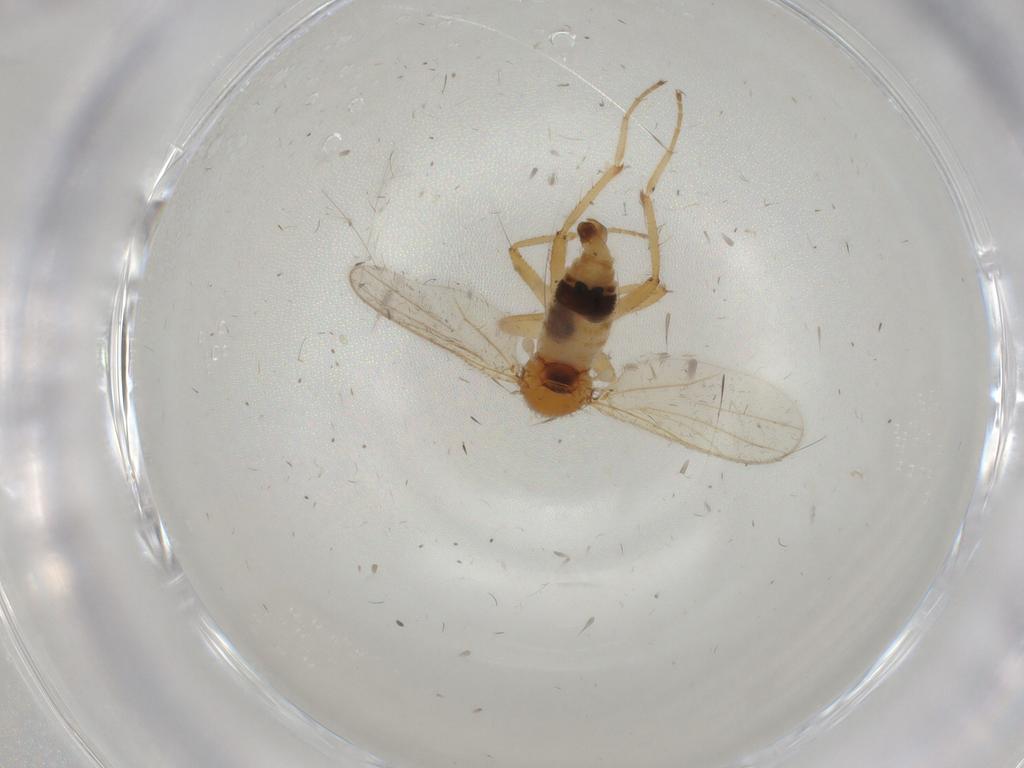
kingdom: Animalia
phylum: Arthropoda
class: Insecta
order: Diptera
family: Hybotidae
